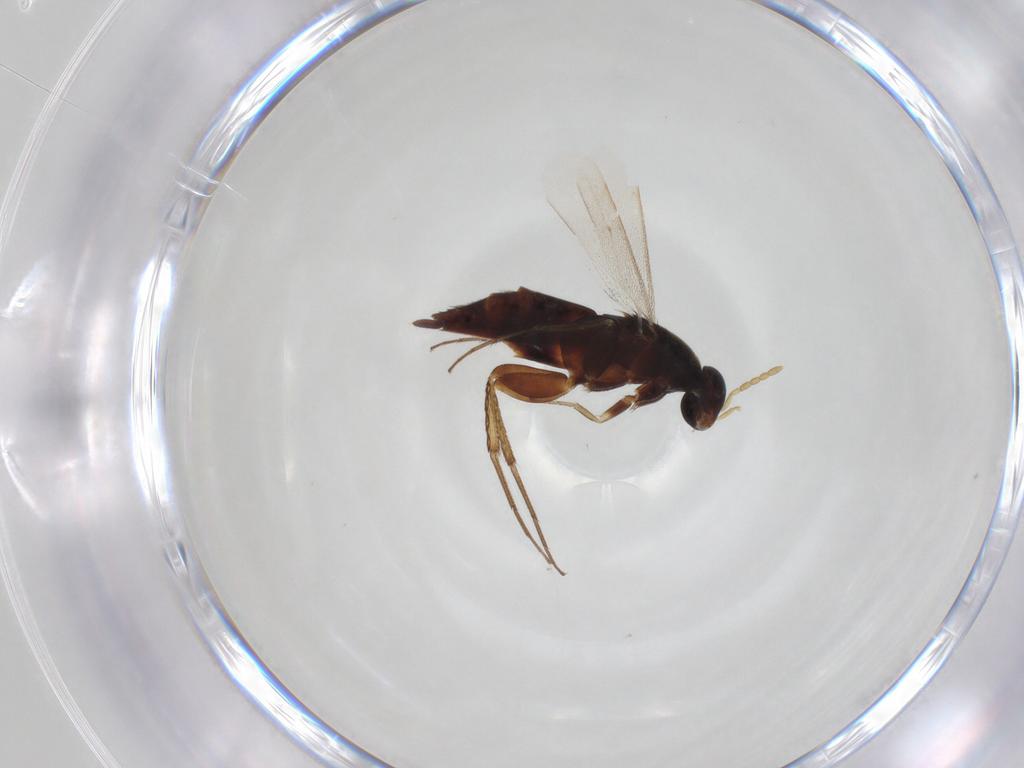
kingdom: Animalia
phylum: Arthropoda
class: Insecta
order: Hymenoptera
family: Eulophidae
